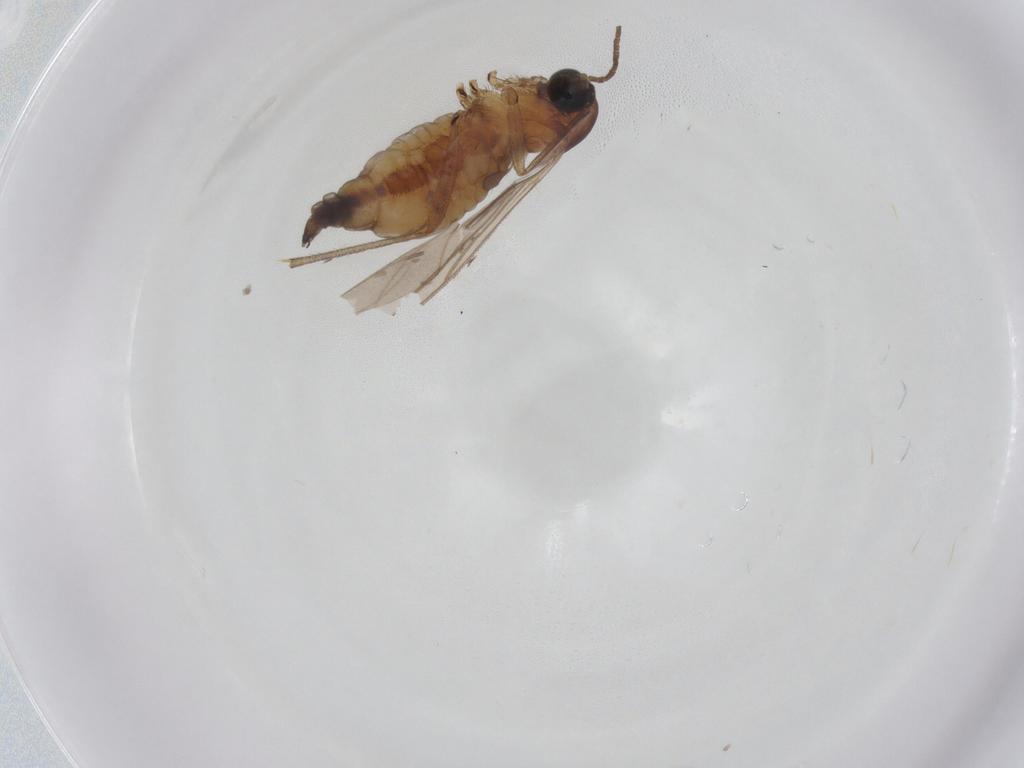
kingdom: Animalia
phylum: Arthropoda
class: Insecta
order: Diptera
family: Sciaridae
